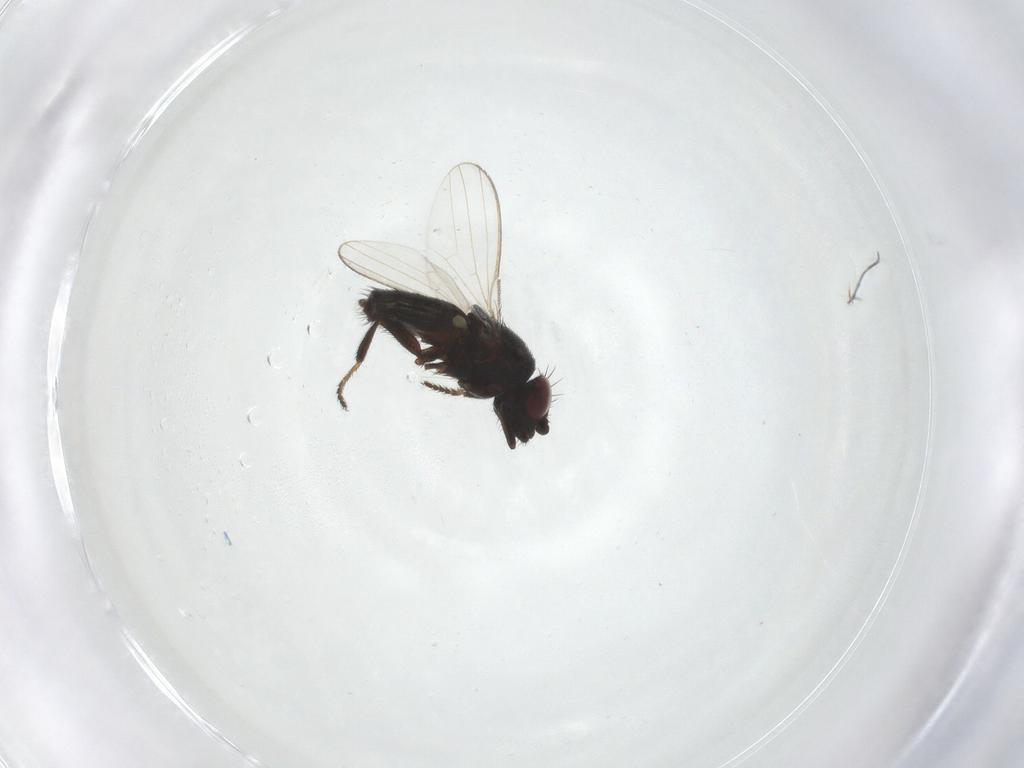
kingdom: Animalia
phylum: Arthropoda
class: Insecta
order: Diptera
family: Milichiidae
